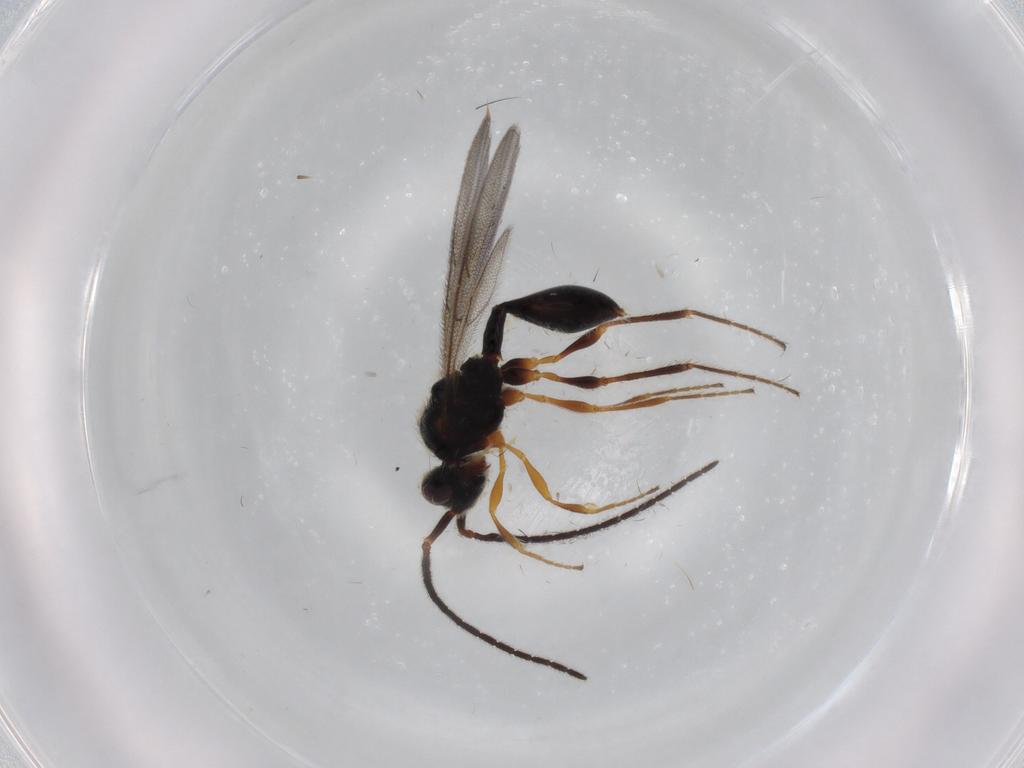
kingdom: Animalia
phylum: Arthropoda
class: Insecta
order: Hymenoptera
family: Diapriidae
